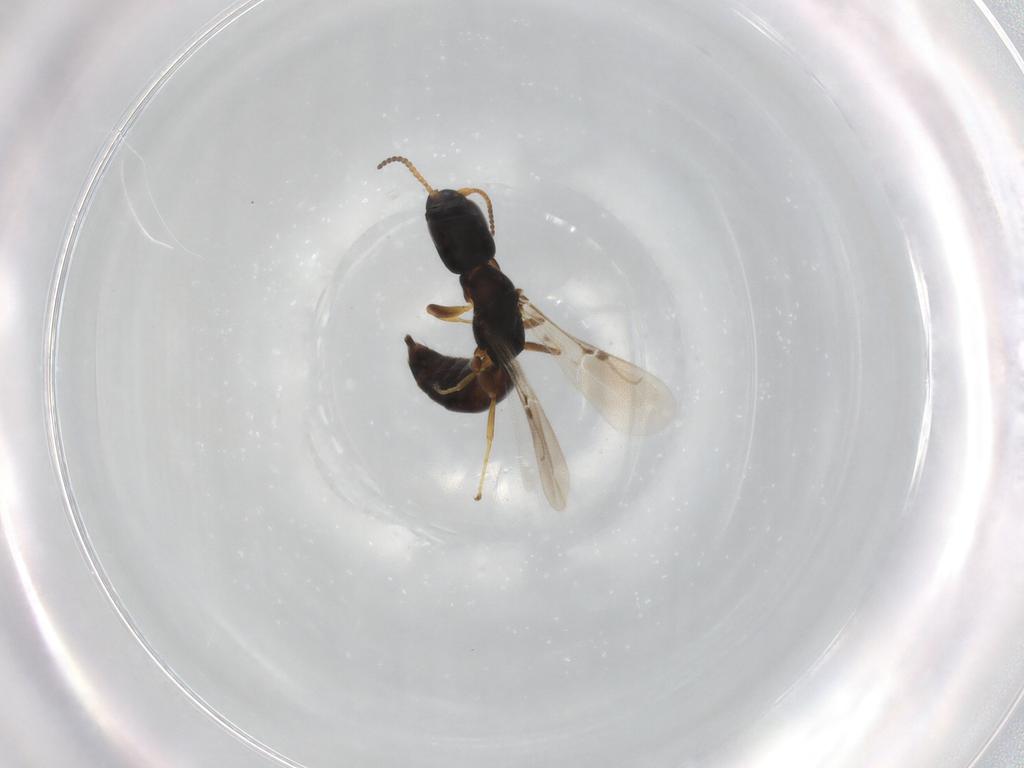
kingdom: Animalia
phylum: Arthropoda
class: Insecta
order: Hymenoptera
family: Bethylidae
